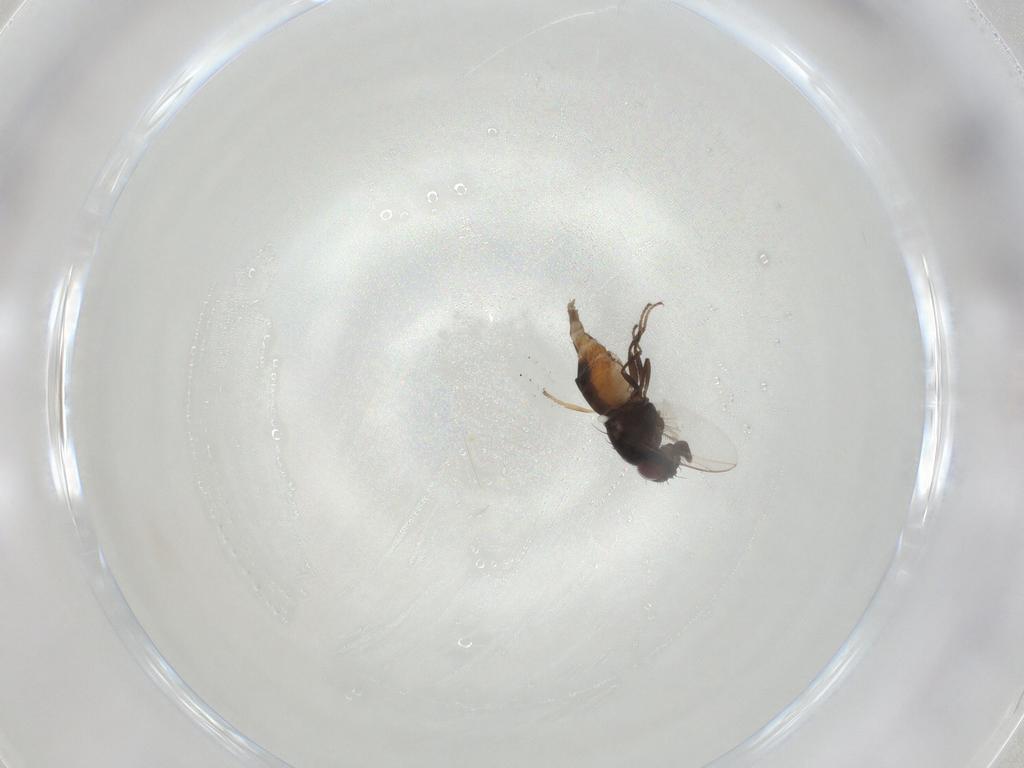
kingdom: Animalia
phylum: Arthropoda
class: Insecta
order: Diptera
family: Carnidae
